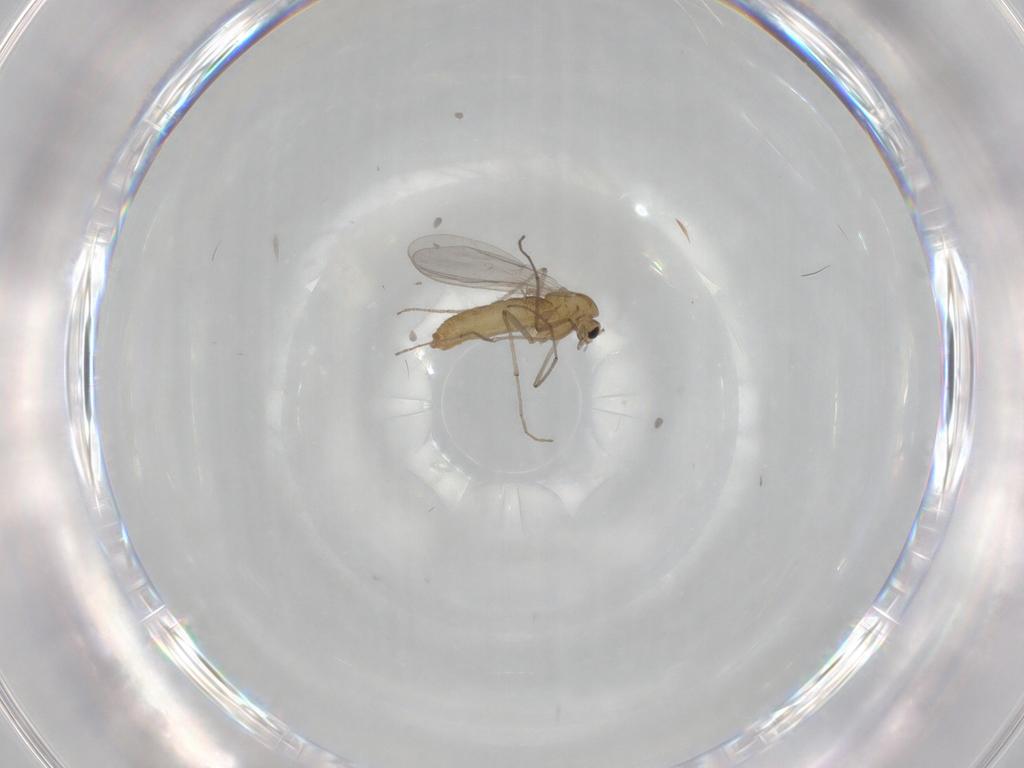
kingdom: Animalia
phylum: Arthropoda
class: Insecta
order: Diptera
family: Chironomidae
